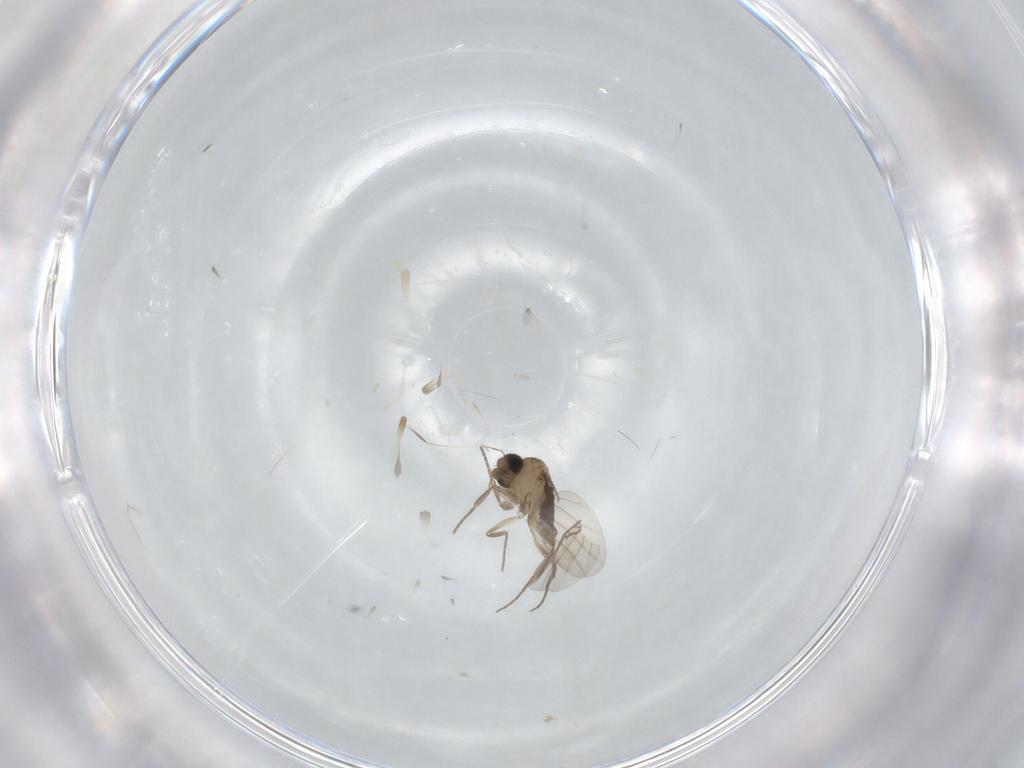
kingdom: Animalia
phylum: Arthropoda
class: Insecta
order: Diptera
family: Phoridae
